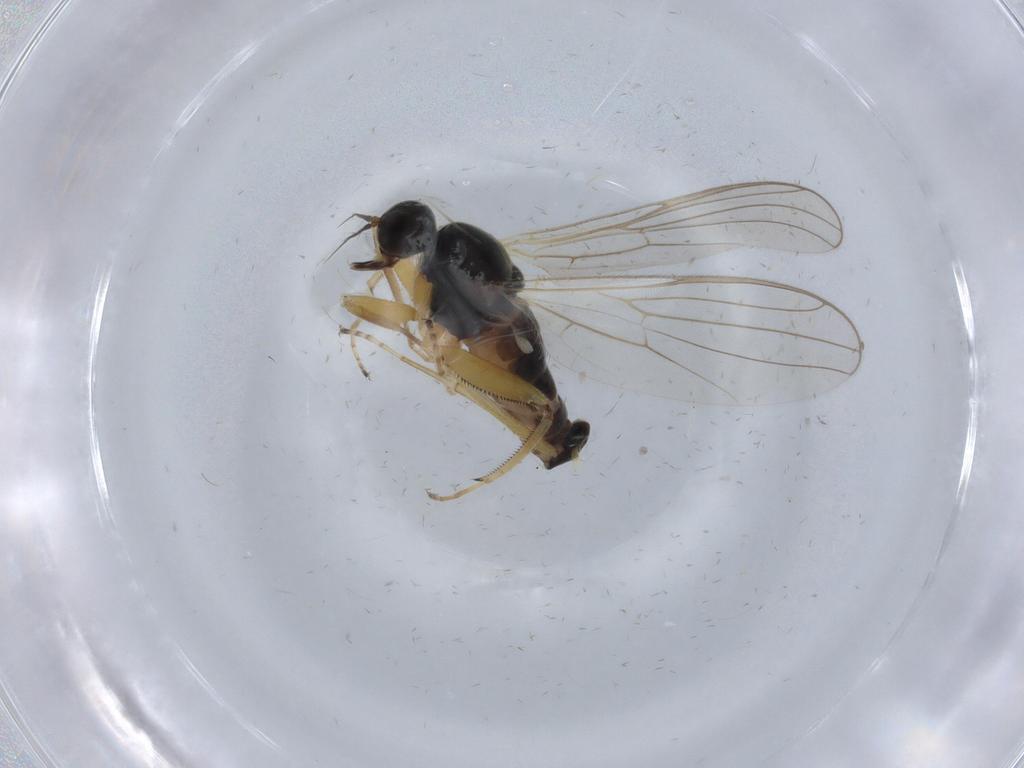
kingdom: Animalia
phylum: Arthropoda
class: Insecta
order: Diptera
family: Hybotidae
